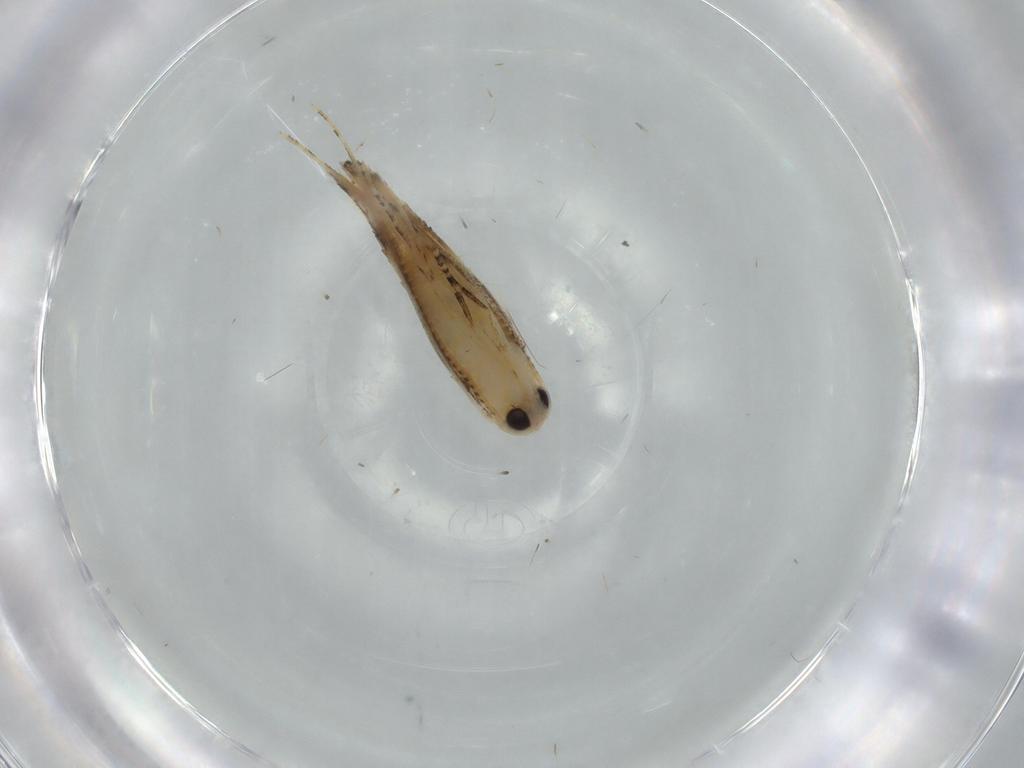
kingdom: Animalia
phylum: Arthropoda
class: Insecta
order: Lepidoptera
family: Bucculatricidae
